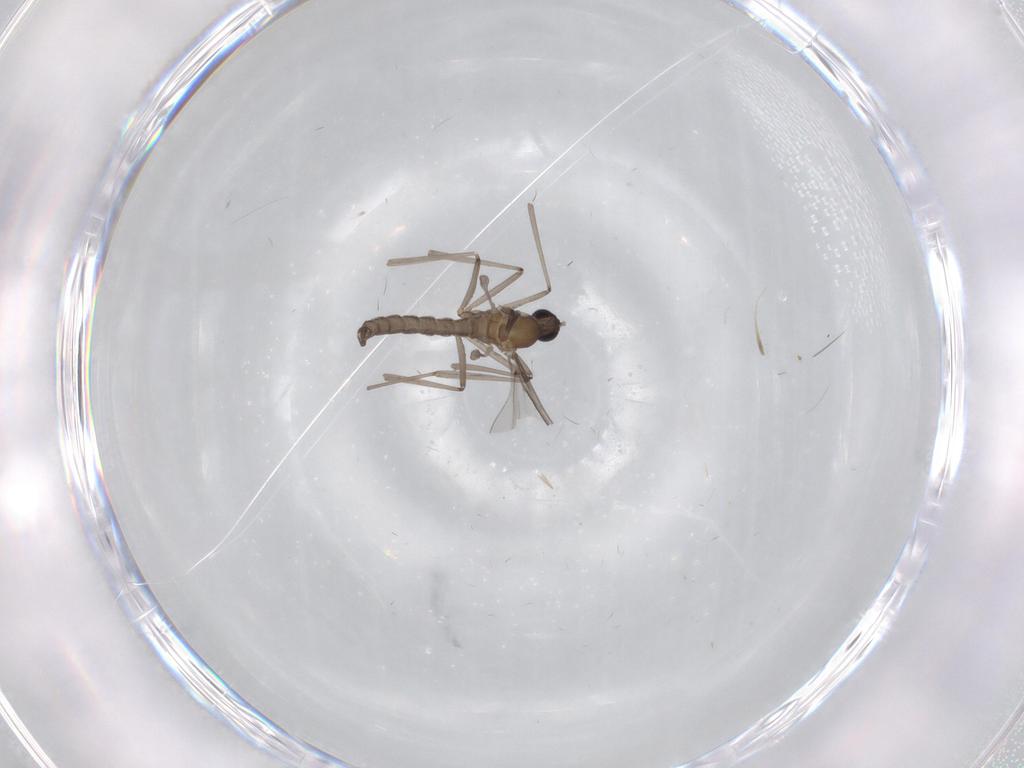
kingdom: Animalia
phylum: Arthropoda
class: Insecta
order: Diptera
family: Cecidomyiidae
